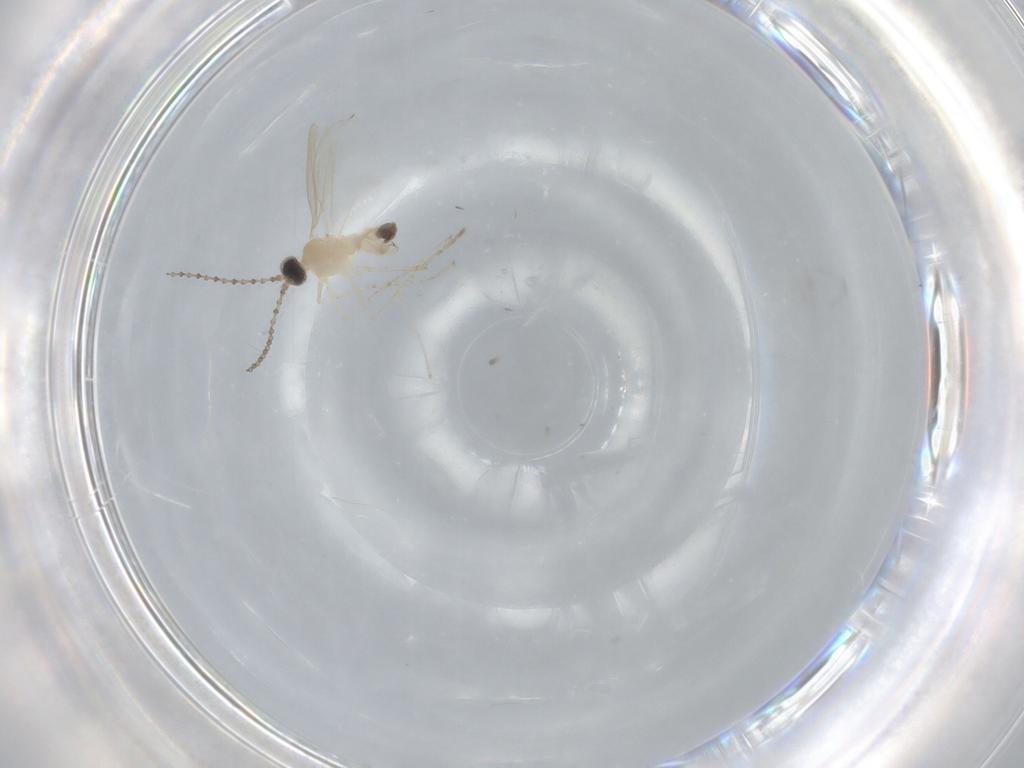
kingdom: Animalia
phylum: Arthropoda
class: Insecta
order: Diptera
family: Cecidomyiidae
